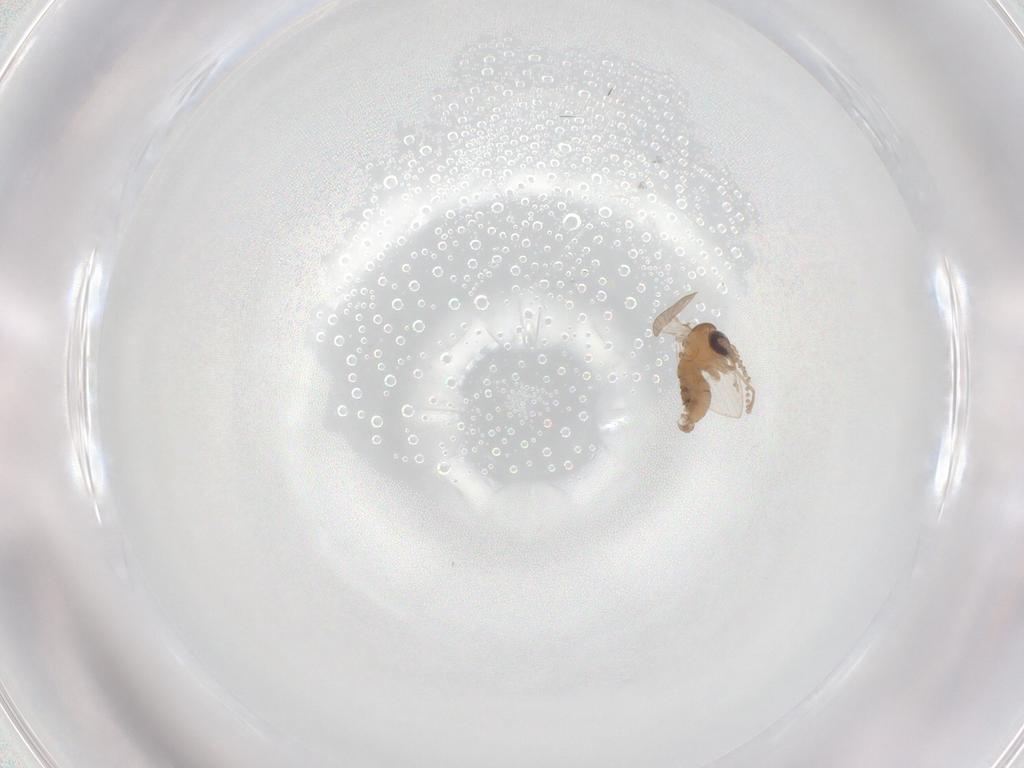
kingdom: Animalia
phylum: Arthropoda
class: Insecta
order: Diptera
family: Psychodidae
